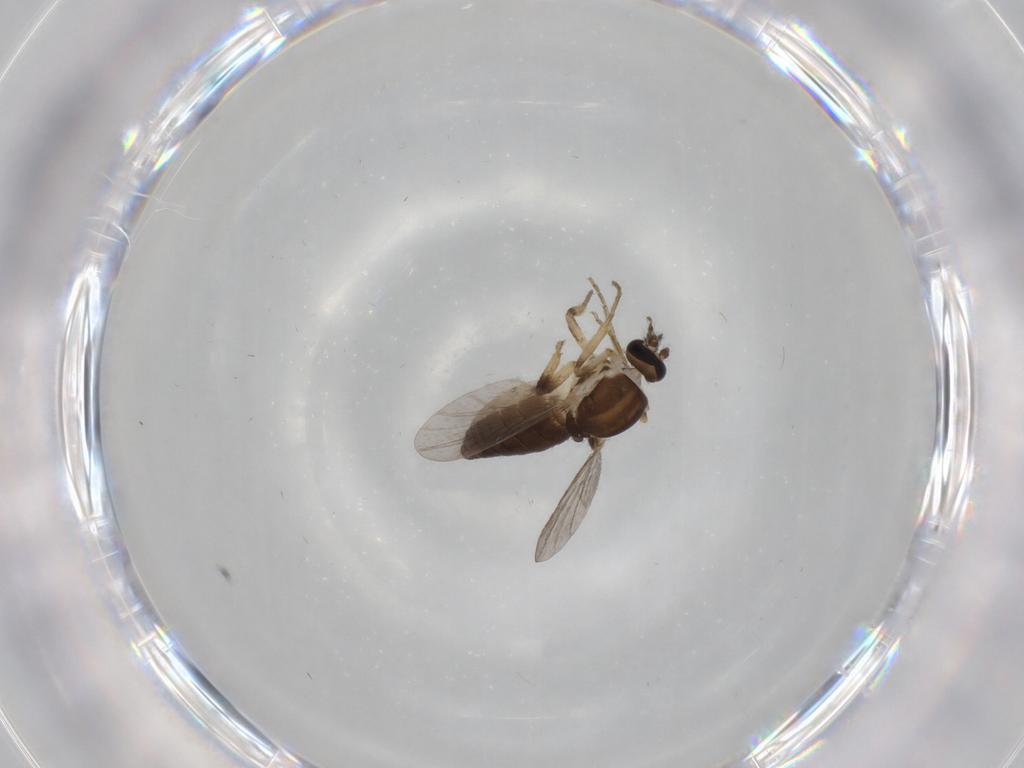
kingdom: Animalia
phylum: Arthropoda
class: Insecta
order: Diptera
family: Ceratopogonidae
